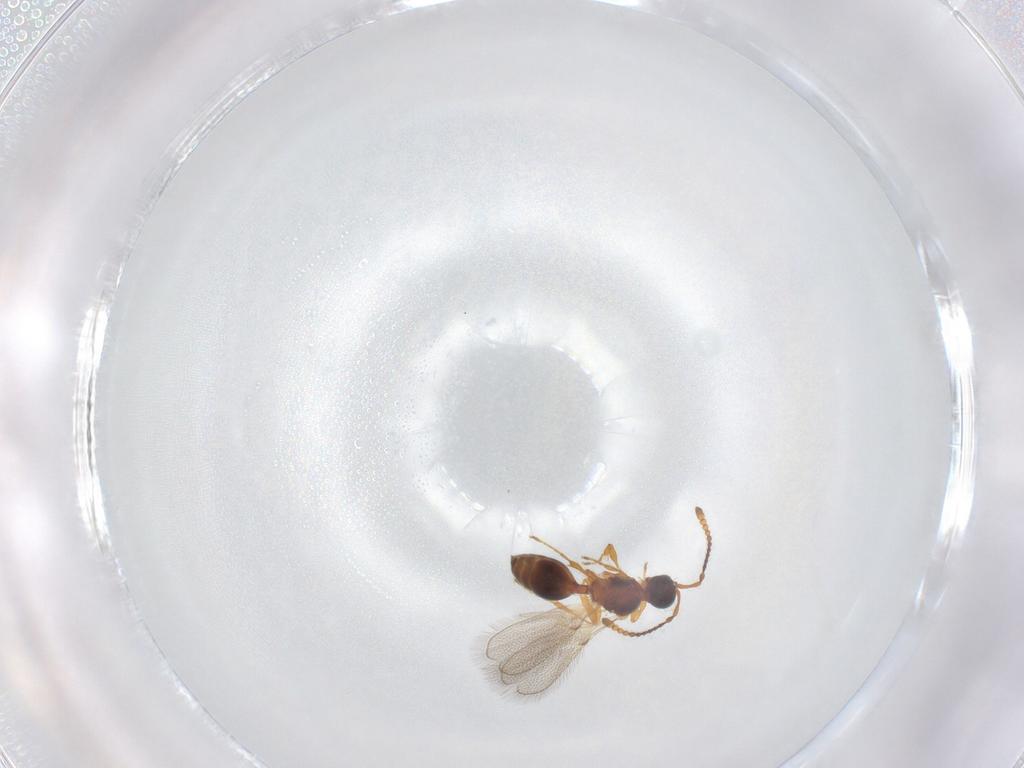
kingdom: Animalia
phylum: Arthropoda
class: Insecta
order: Hymenoptera
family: Diapriidae
